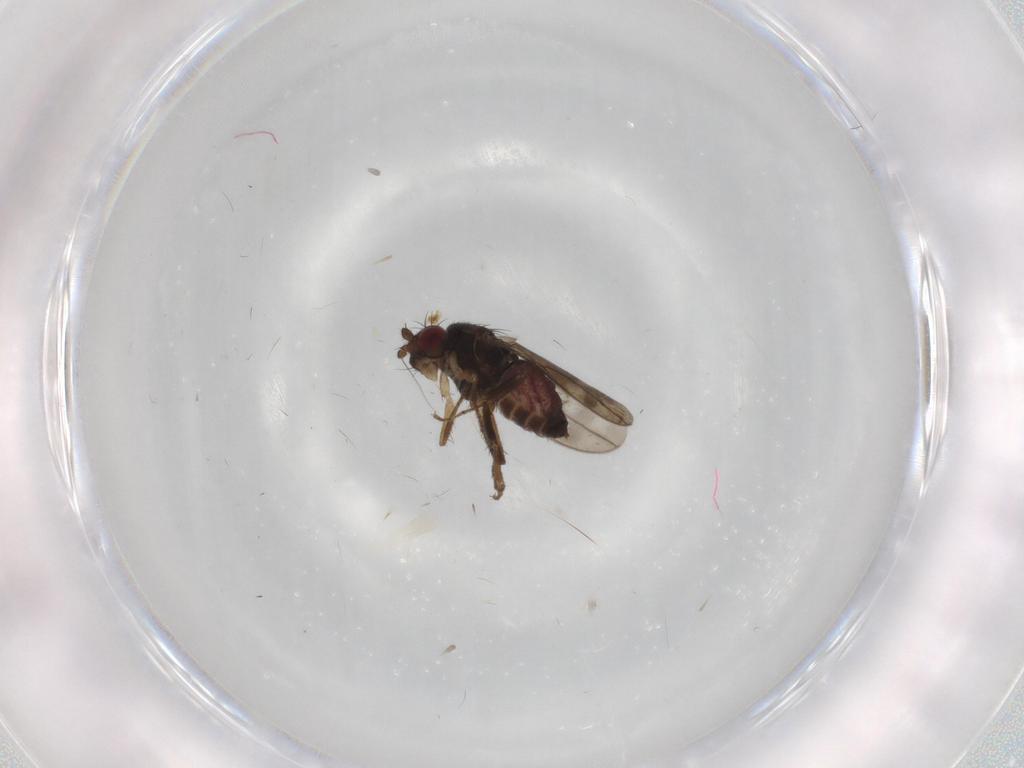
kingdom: Animalia
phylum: Arthropoda
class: Insecta
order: Diptera
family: Sphaeroceridae
